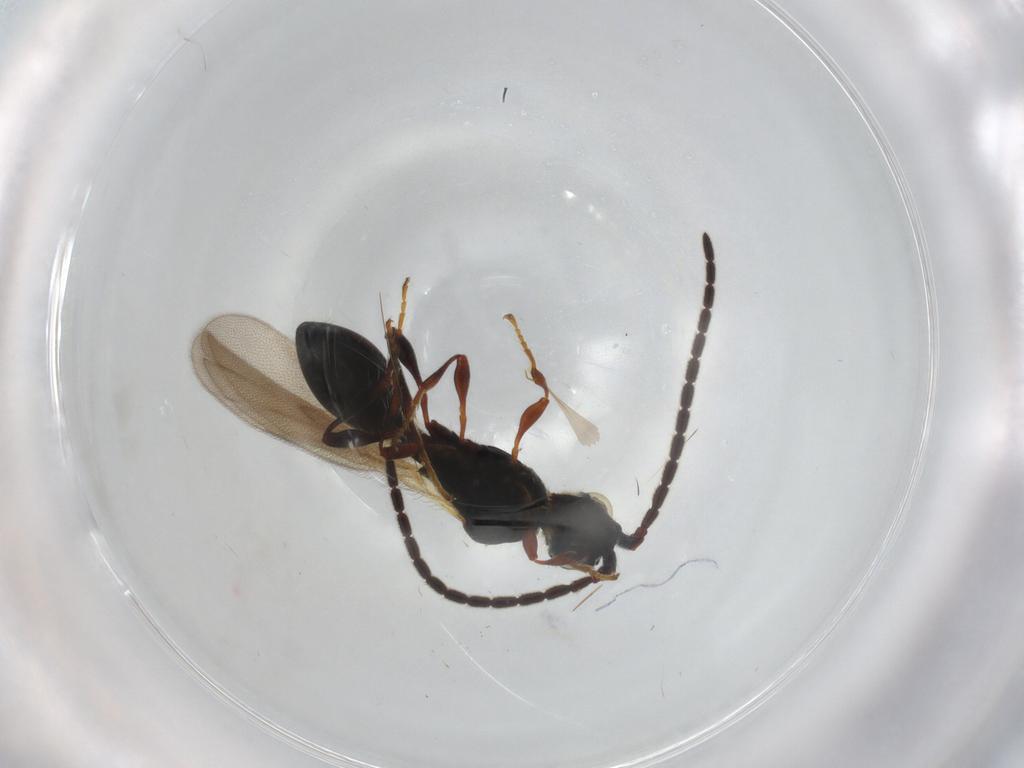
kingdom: Animalia
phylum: Arthropoda
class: Insecta
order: Hymenoptera
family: Diapriidae
